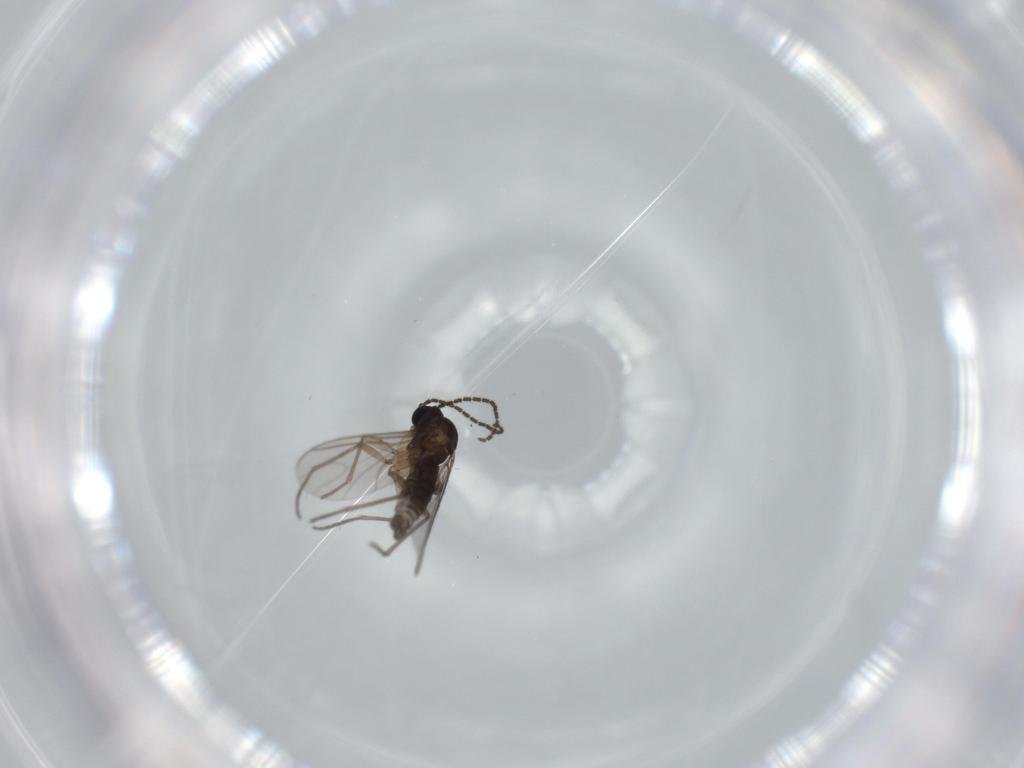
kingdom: Animalia
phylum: Arthropoda
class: Insecta
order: Diptera
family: Sciaridae
